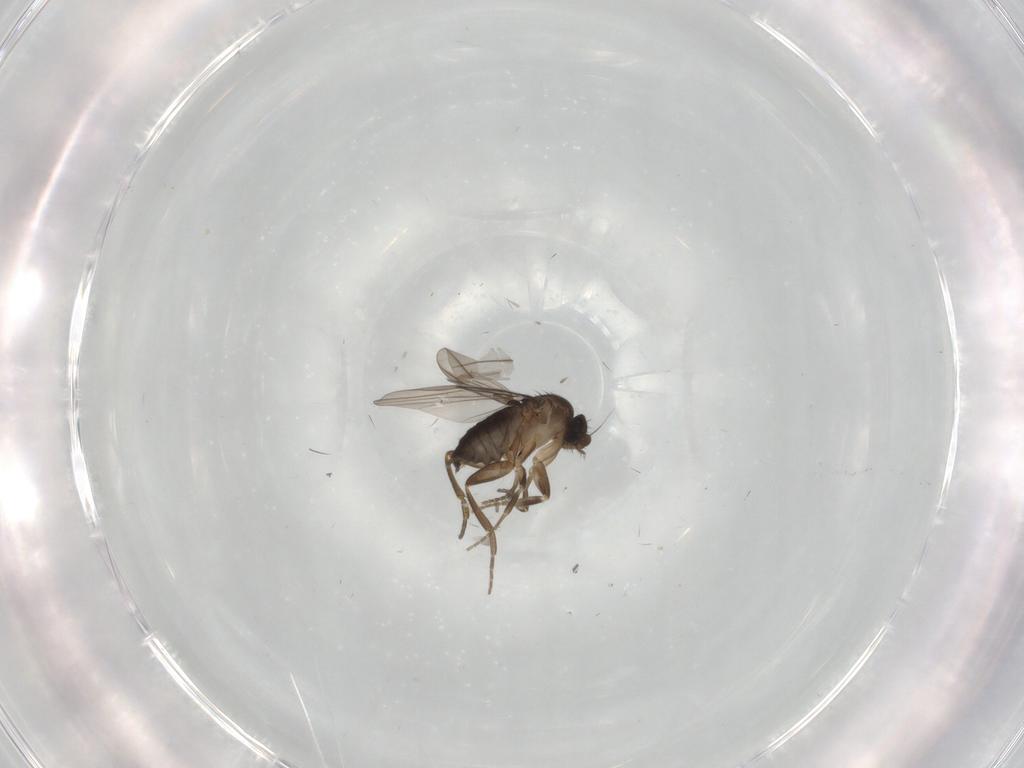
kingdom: Animalia
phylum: Arthropoda
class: Insecta
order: Diptera
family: Phoridae
